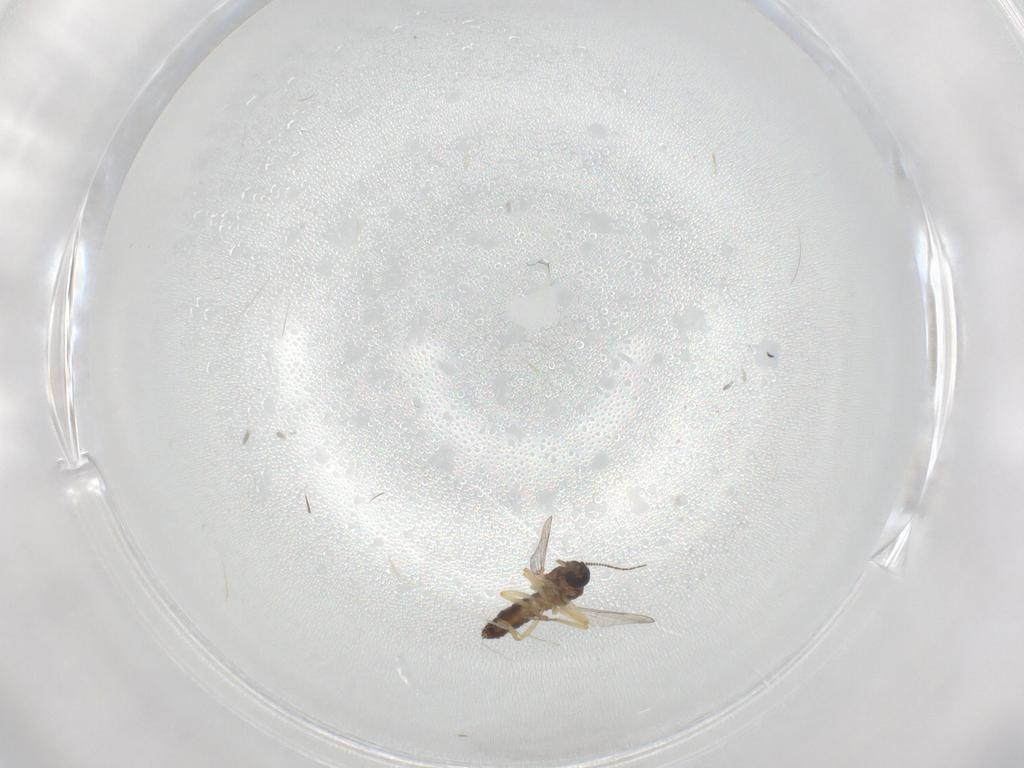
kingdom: Animalia
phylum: Arthropoda
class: Insecta
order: Diptera
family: Ceratopogonidae
